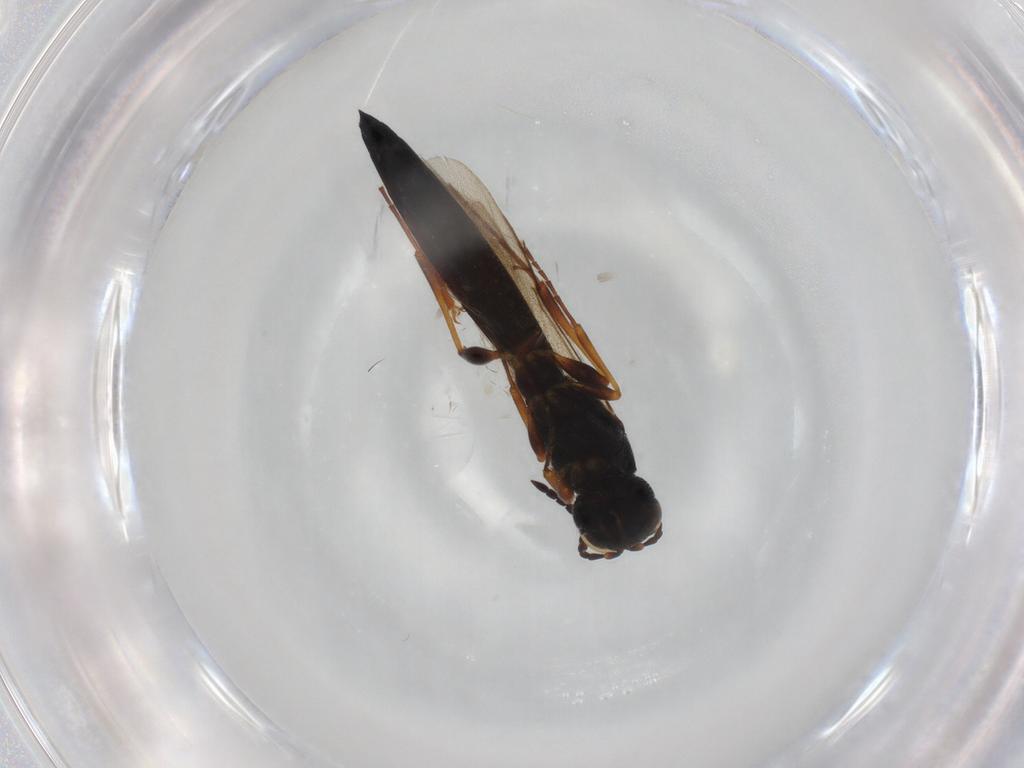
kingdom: Animalia
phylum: Arthropoda
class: Insecta
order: Hymenoptera
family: Scelionidae
